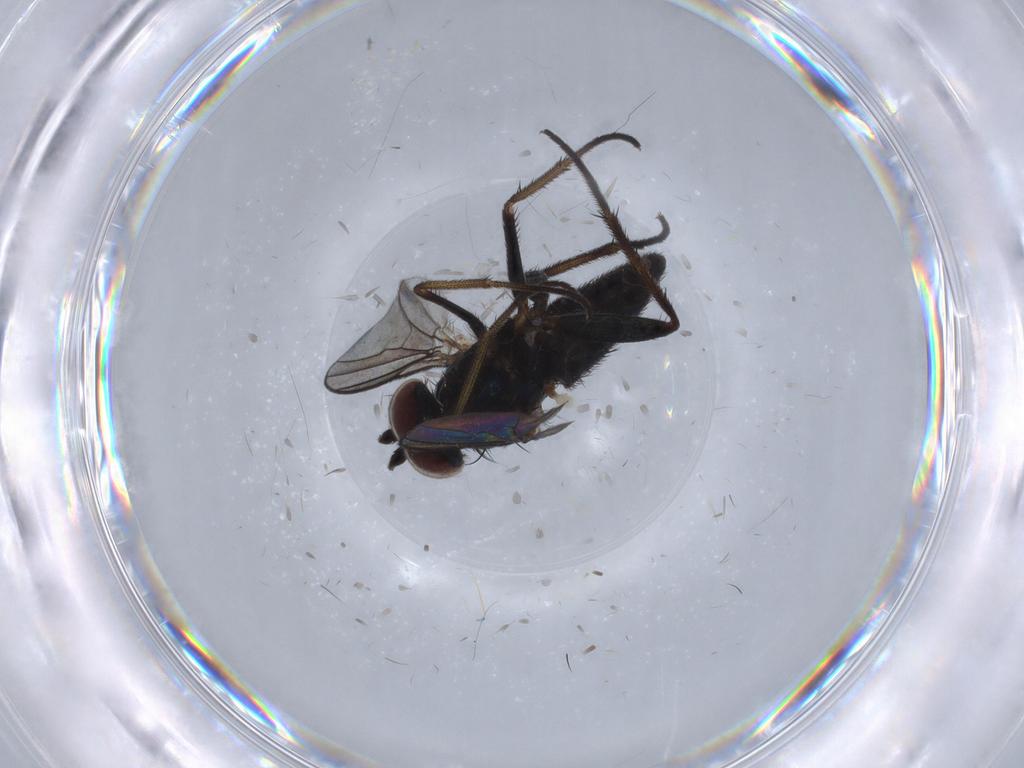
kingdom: Animalia
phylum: Arthropoda
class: Insecta
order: Diptera
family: Dolichopodidae
